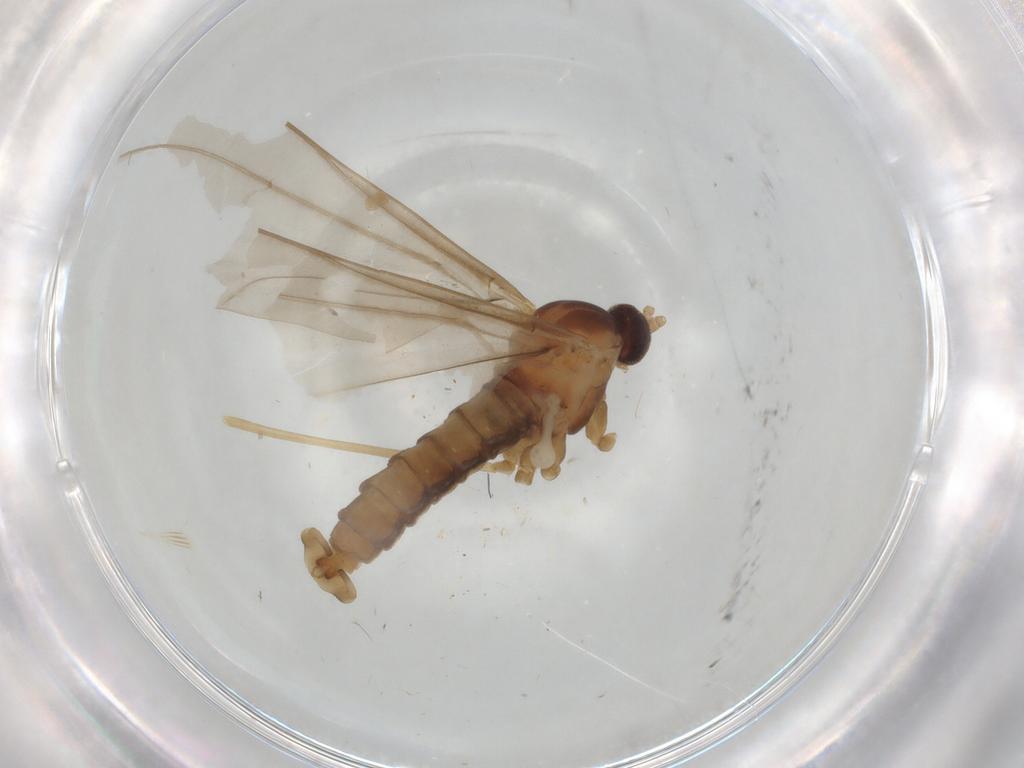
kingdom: Animalia
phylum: Arthropoda
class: Insecta
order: Diptera
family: Cecidomyiidae
